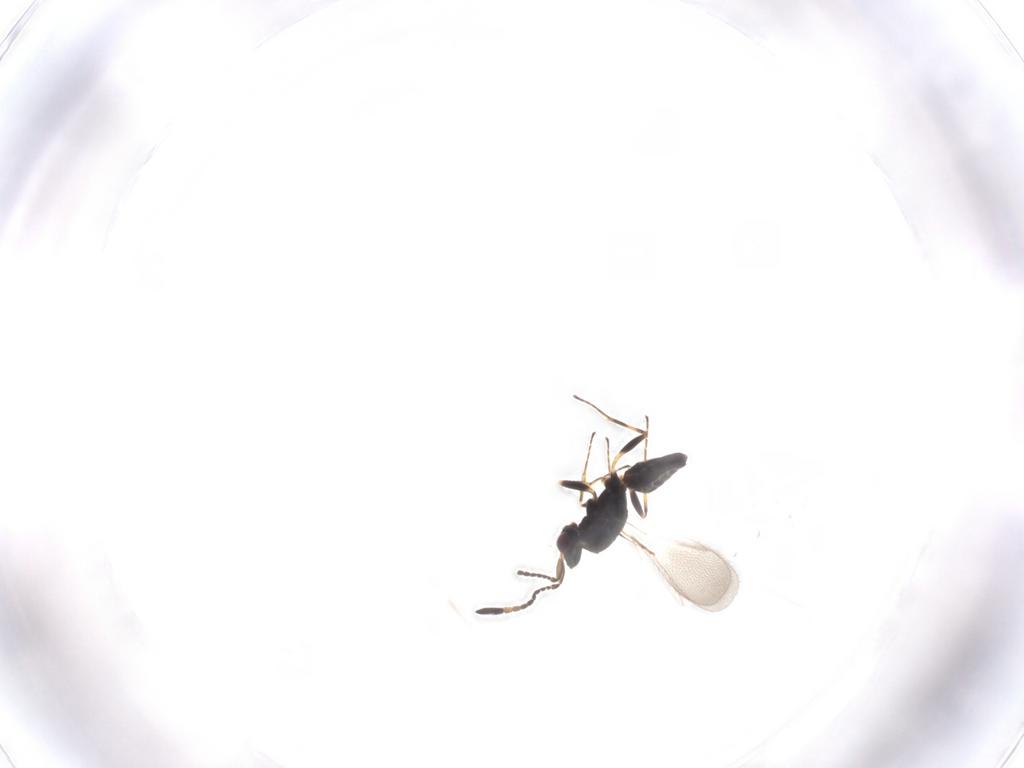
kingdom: Animalia
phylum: Arthropoda
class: Insecta
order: Hymenoptera
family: Mymaridae
